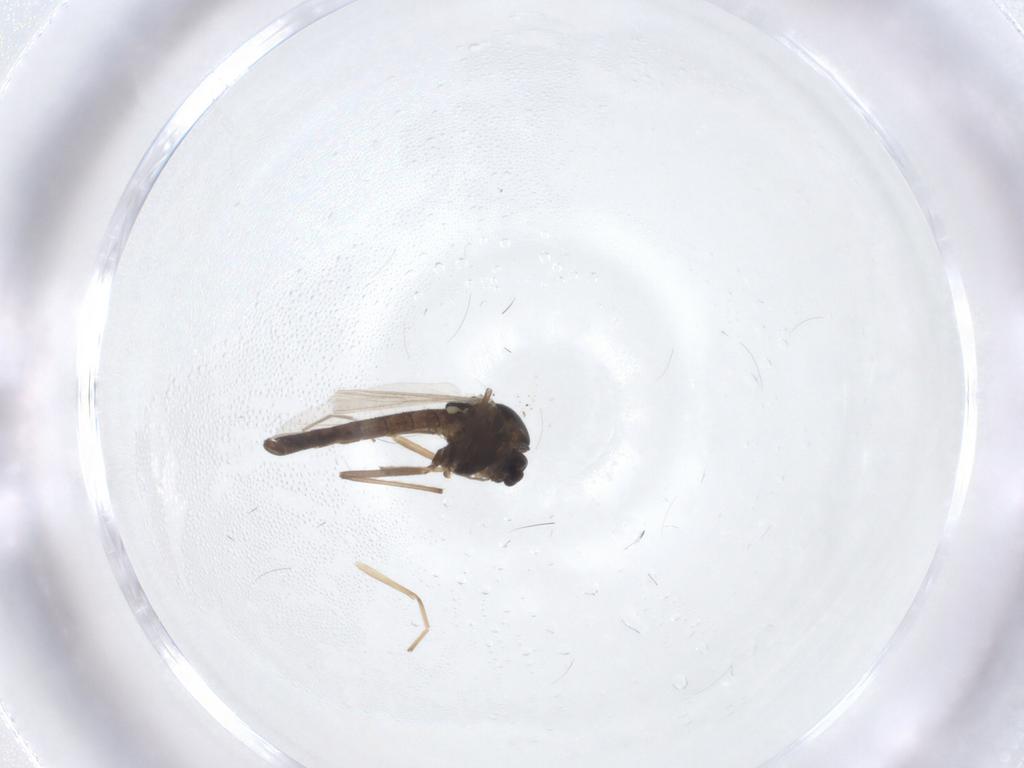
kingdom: Animalia
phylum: Arthropoda
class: Insecta
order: Diptera
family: Chironomidae
